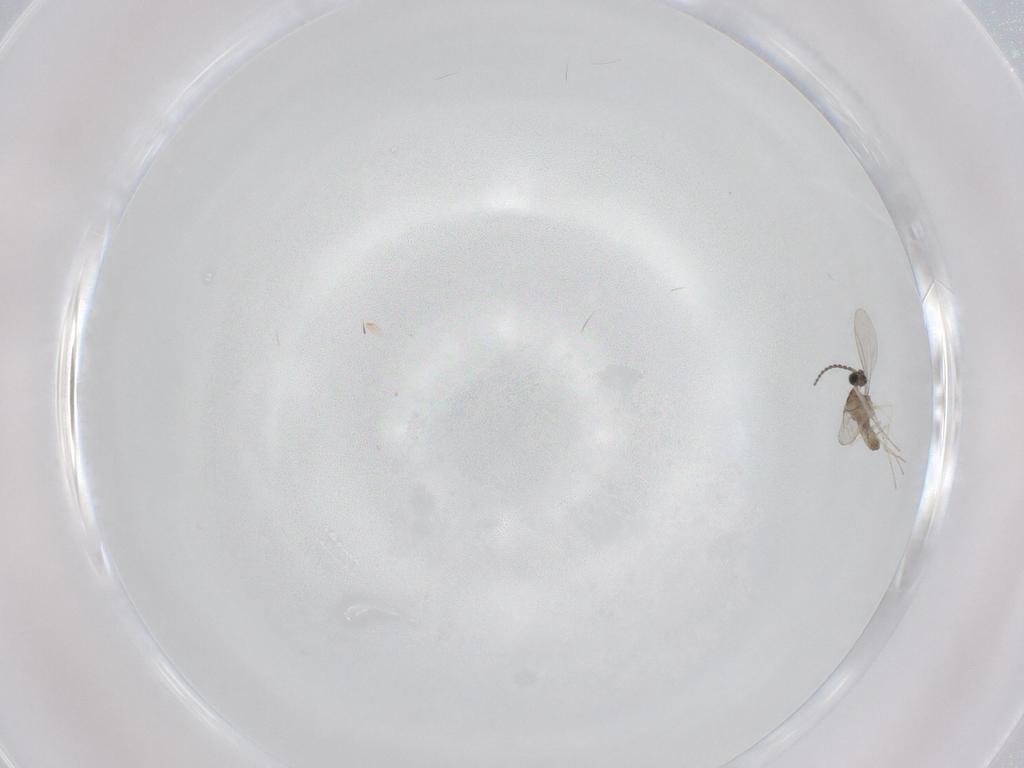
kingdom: Animalia
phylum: Arthropoda
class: Insecta
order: Diptera
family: Cecidomyiidae
